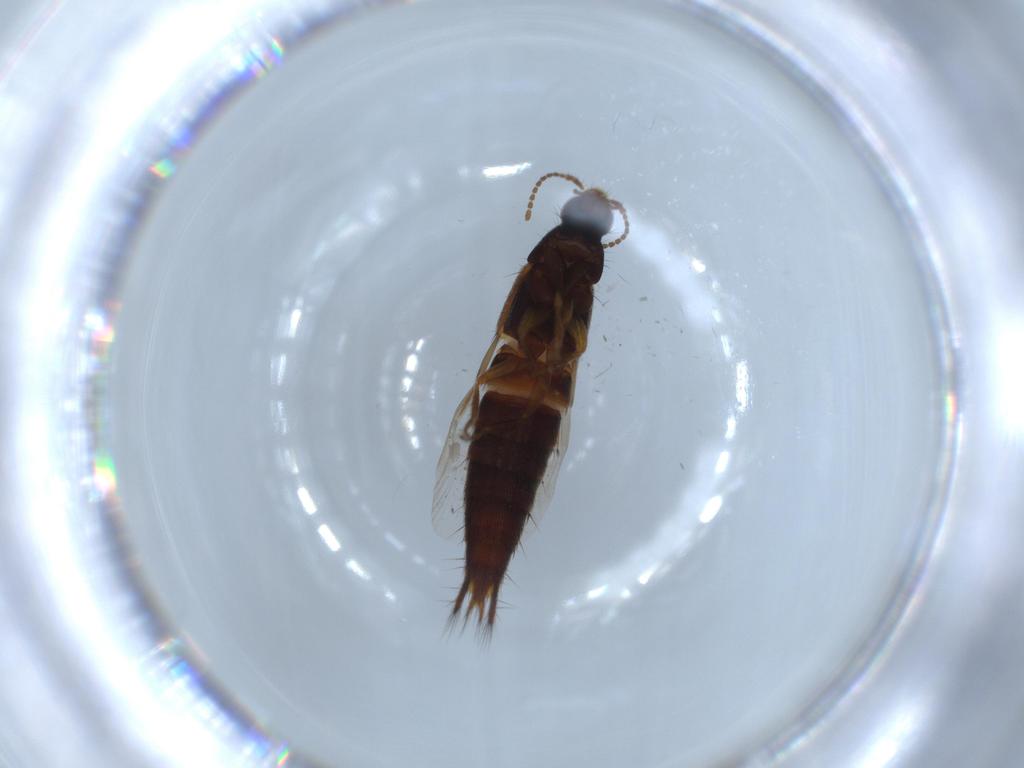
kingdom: Animalia
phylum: Arthropoda
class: Insecta
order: Coleoptera
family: Staphylinidae
